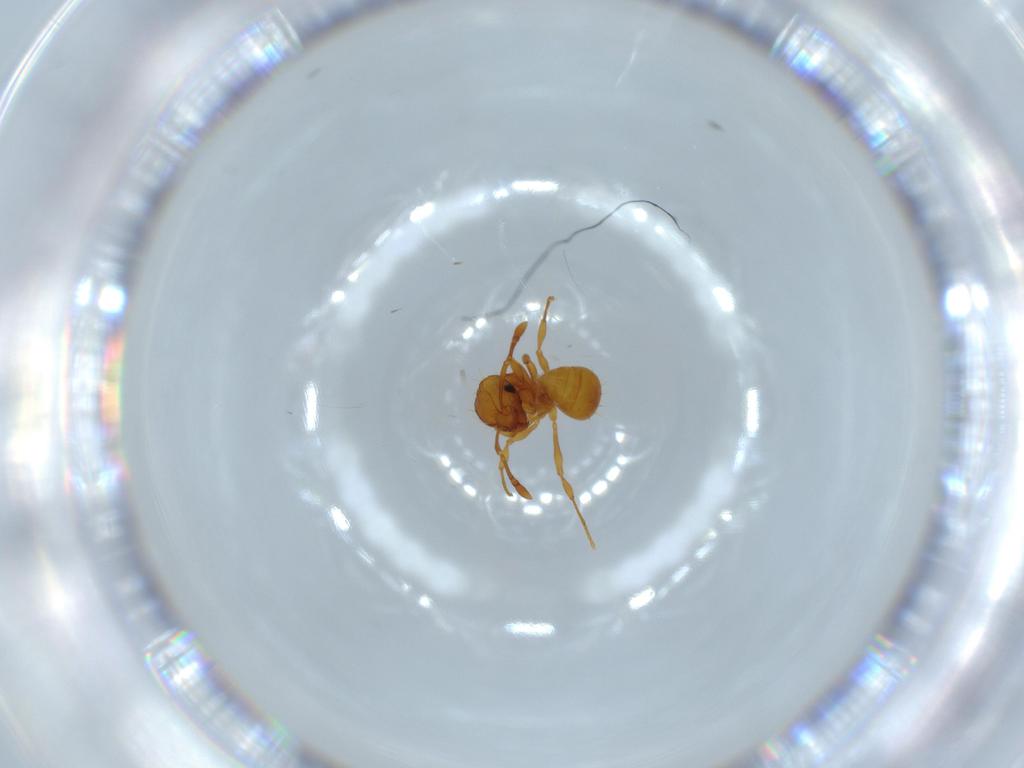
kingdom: Animalia
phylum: Arthropoda
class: Insecta
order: Hymenoptera
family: Formicidae
